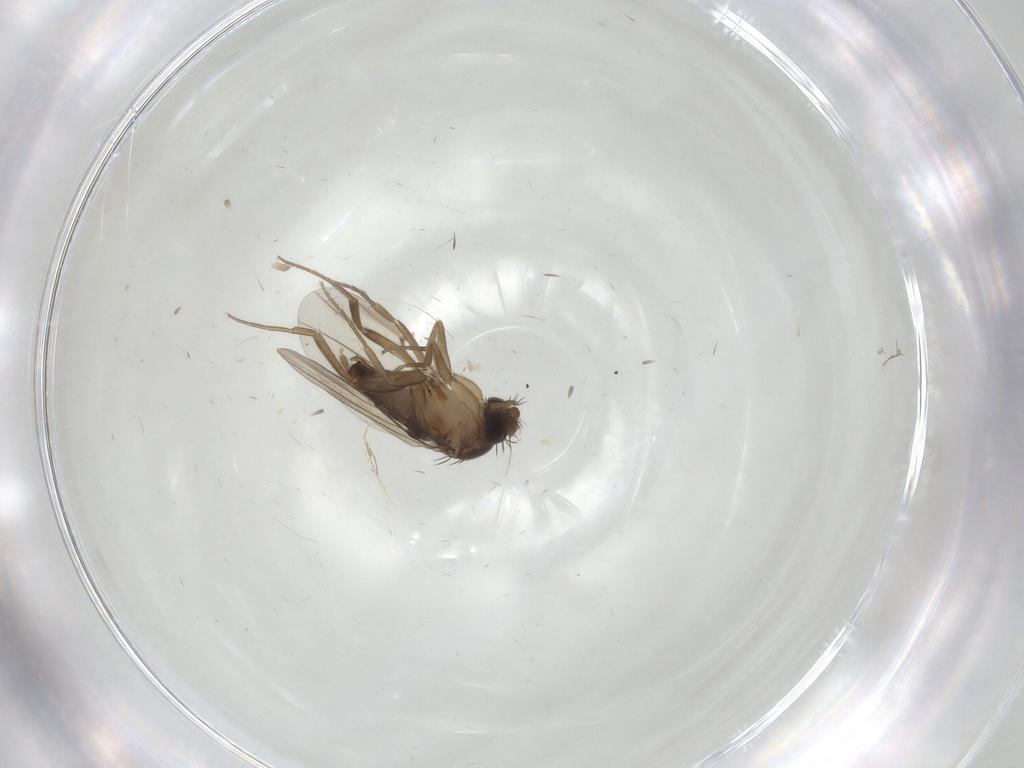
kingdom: Animalia
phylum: Arthropoda
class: Insecta
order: Diptera
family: Phoridae
